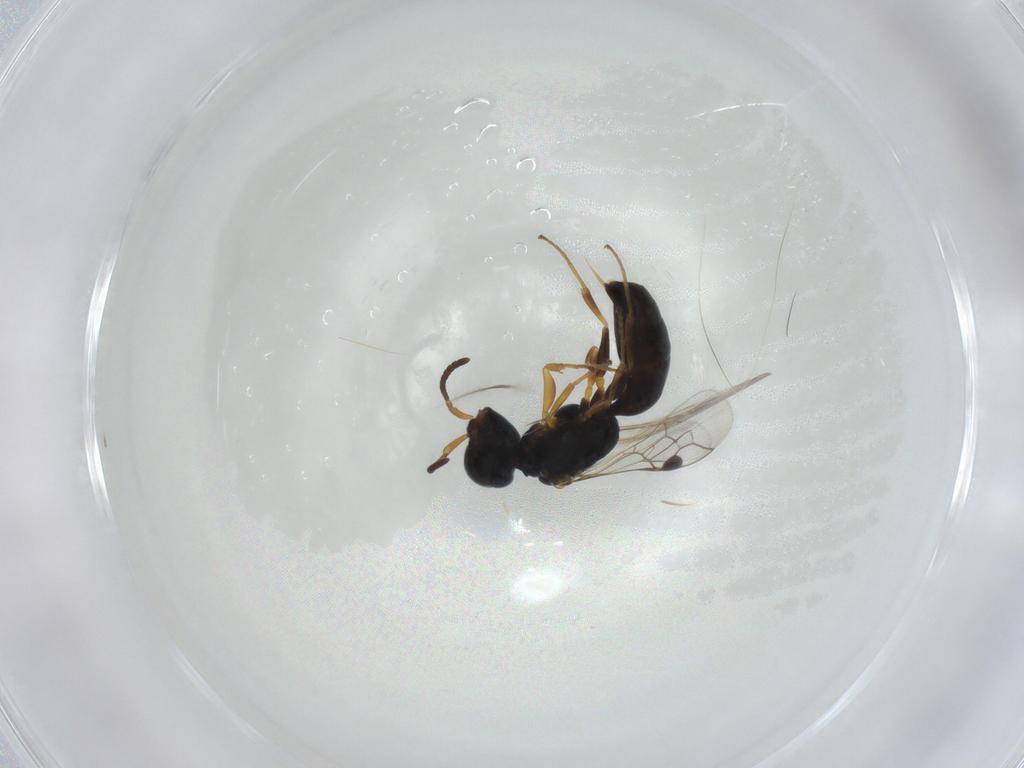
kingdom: Animalia
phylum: Arthropoda
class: Insecta
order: Hymenoptera
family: Pemphredonidae
